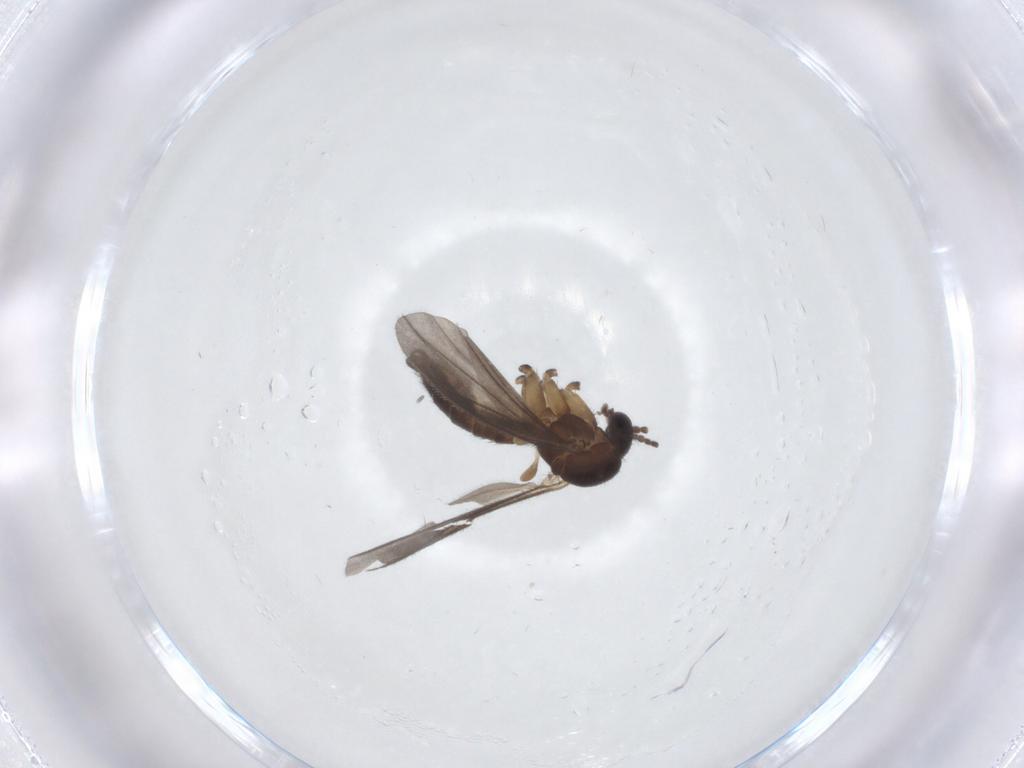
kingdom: Animalia
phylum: Arthropoda
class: Insecta
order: Diptera
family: Mycetophilidae
